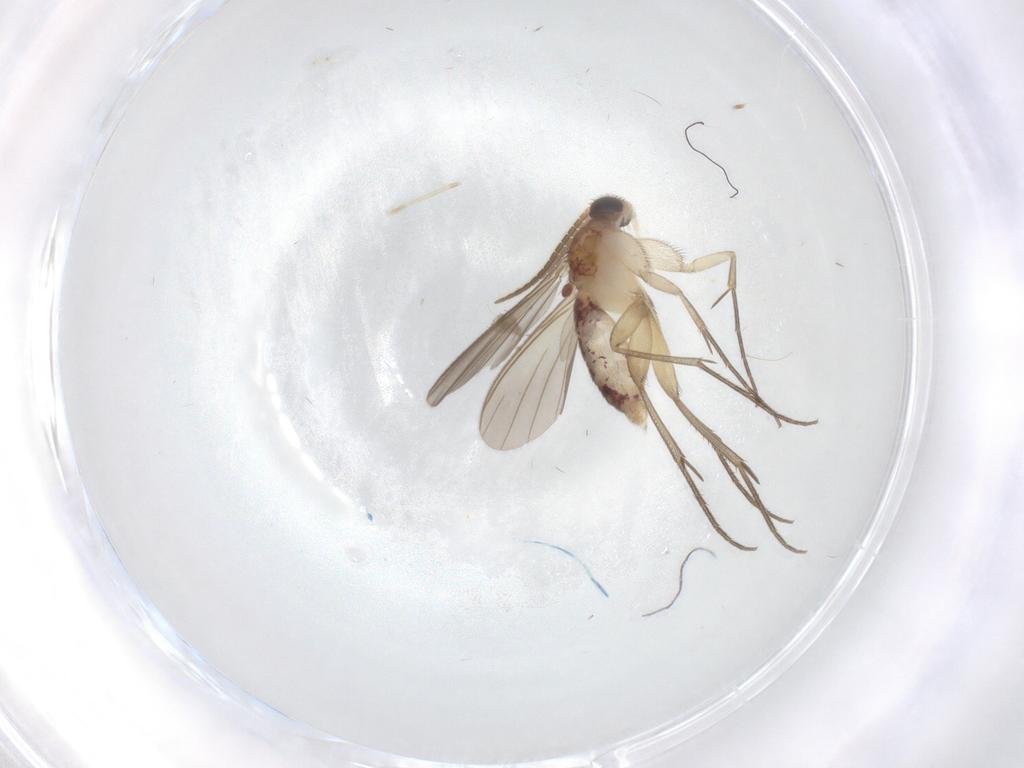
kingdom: Animalia
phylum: Arthropoda
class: Insecta
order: Diptera
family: Mycetophilidae
